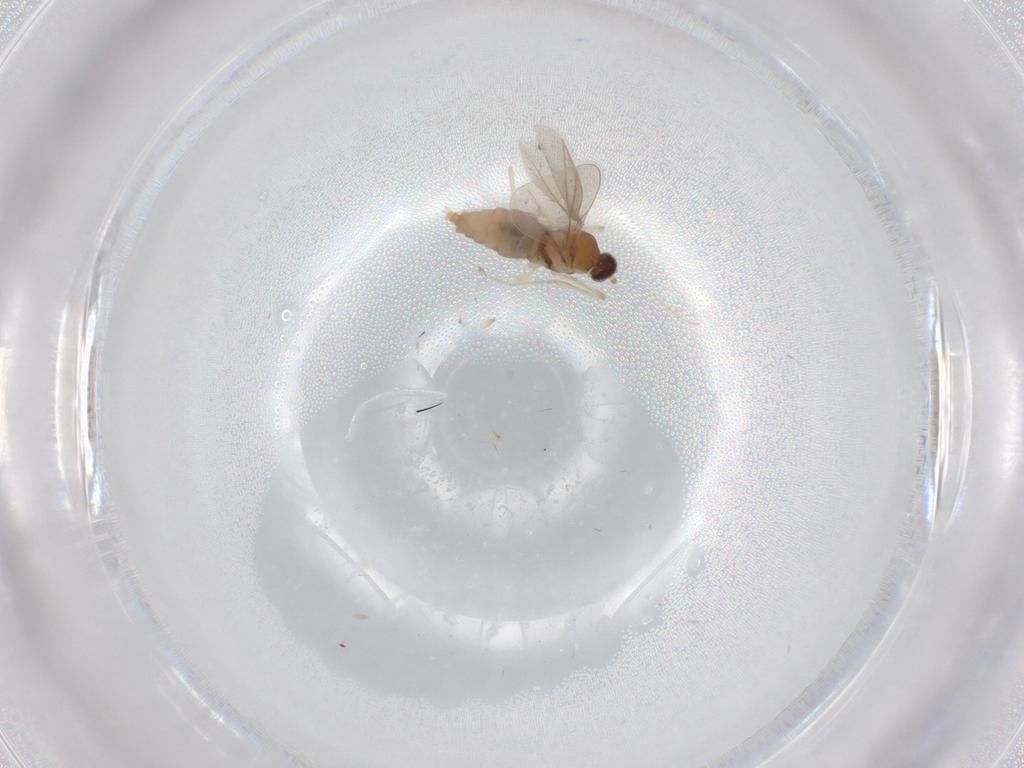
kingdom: Animalia
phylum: Arthropoda
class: Insecta
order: Diptera
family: Cecidomyiidae
